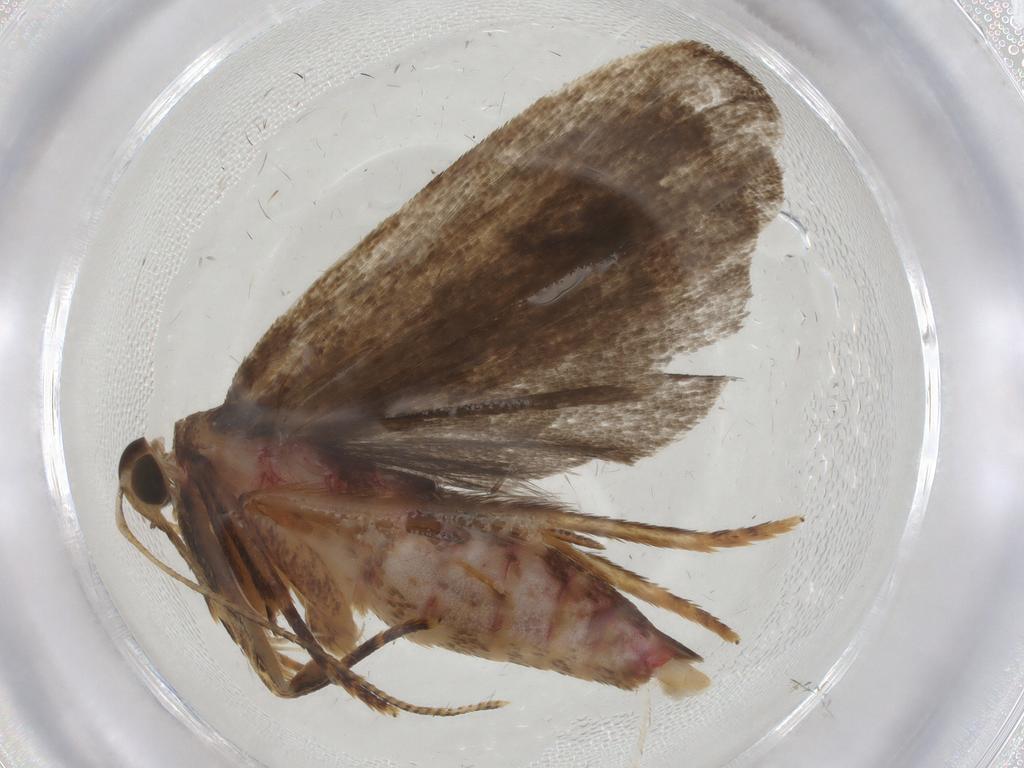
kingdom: Animalia
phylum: Arthropoda
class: Insecta
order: Lepidoptera
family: Autostichidae
